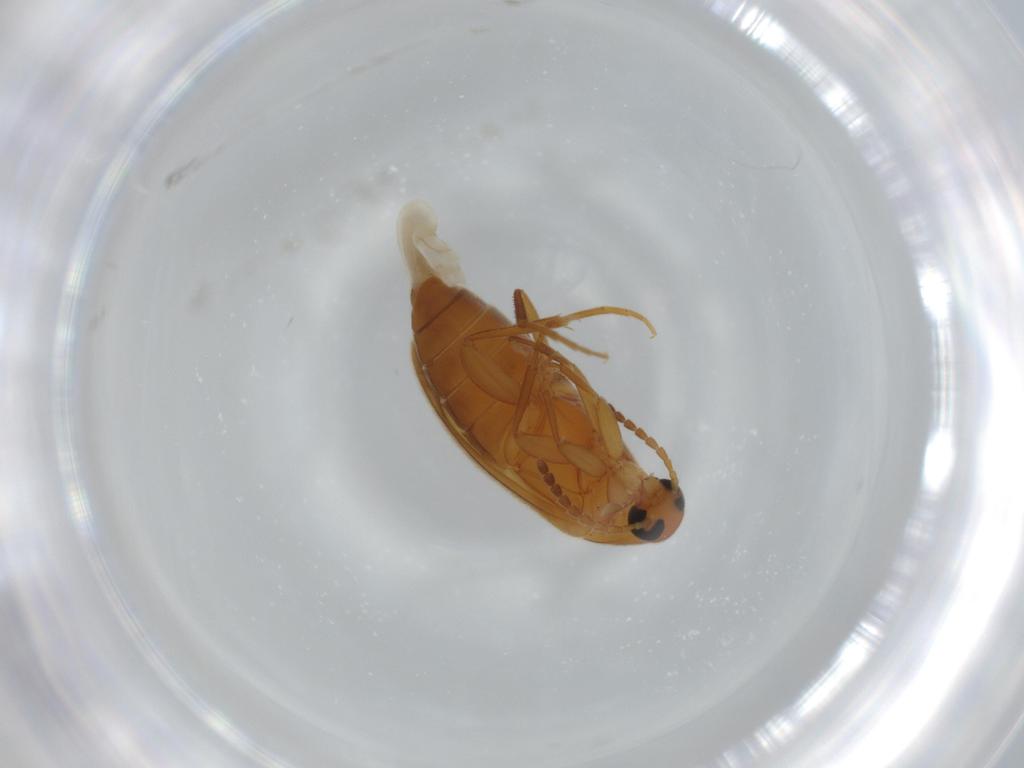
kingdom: Animalia
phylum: Arthropoda
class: Insecta
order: Coleoptera
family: Scraptiidae
